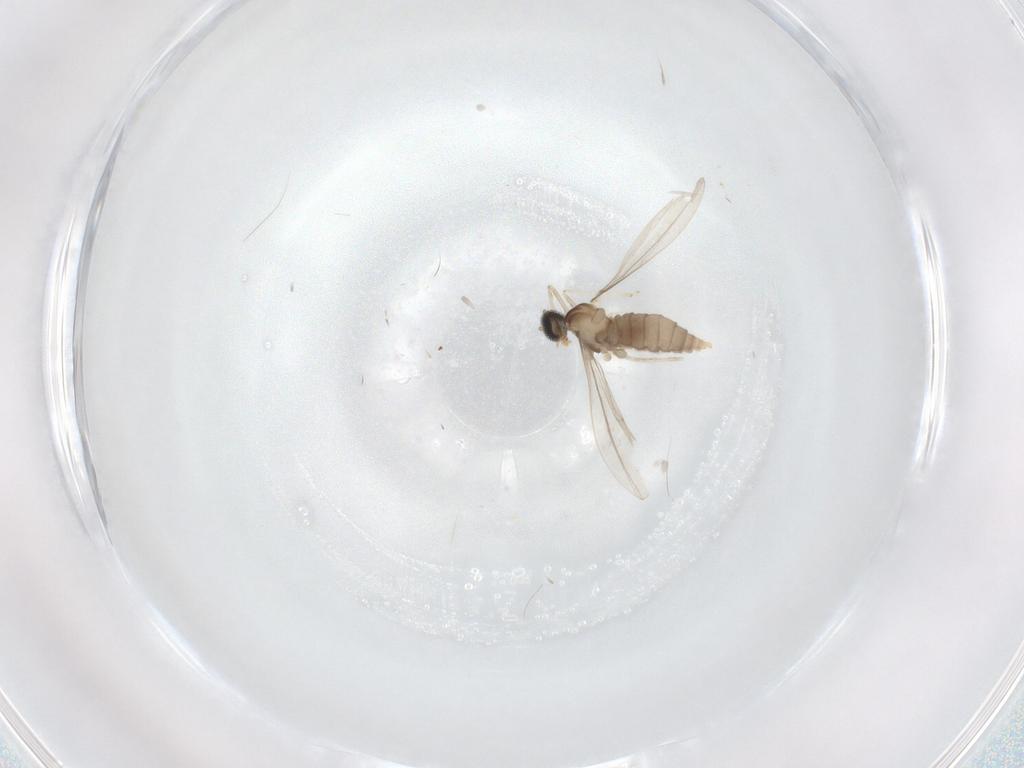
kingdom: Animalia
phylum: Arthropoda
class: Insecta
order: Diptera
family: Cecidomyiidae
